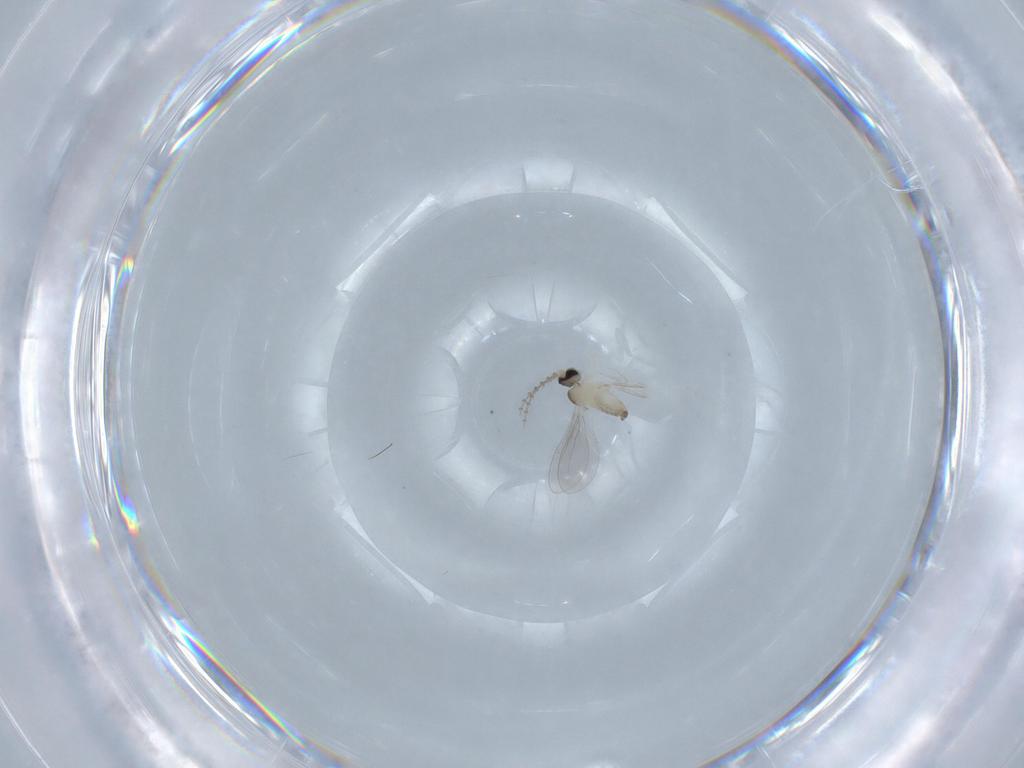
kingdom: Animalia
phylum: Arthropoda
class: Insecta
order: Diptera
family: Cecidomyiidae
